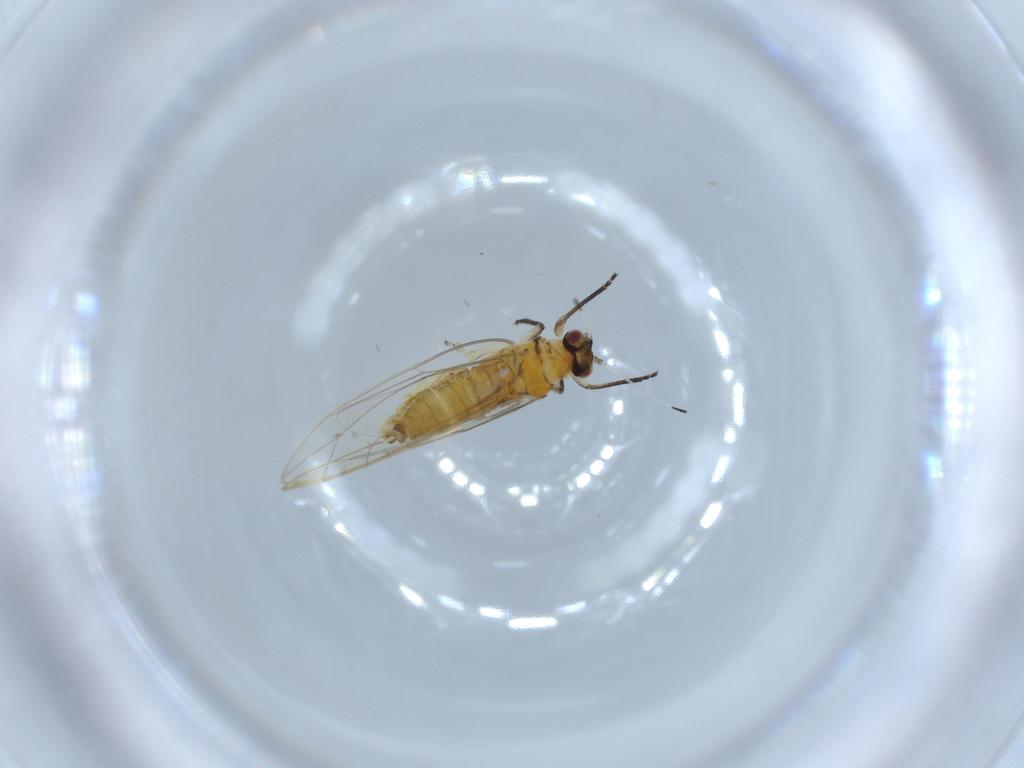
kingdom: Animalia
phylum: Arthropoda
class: Insecta
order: Hemiptera
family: Triozidae
